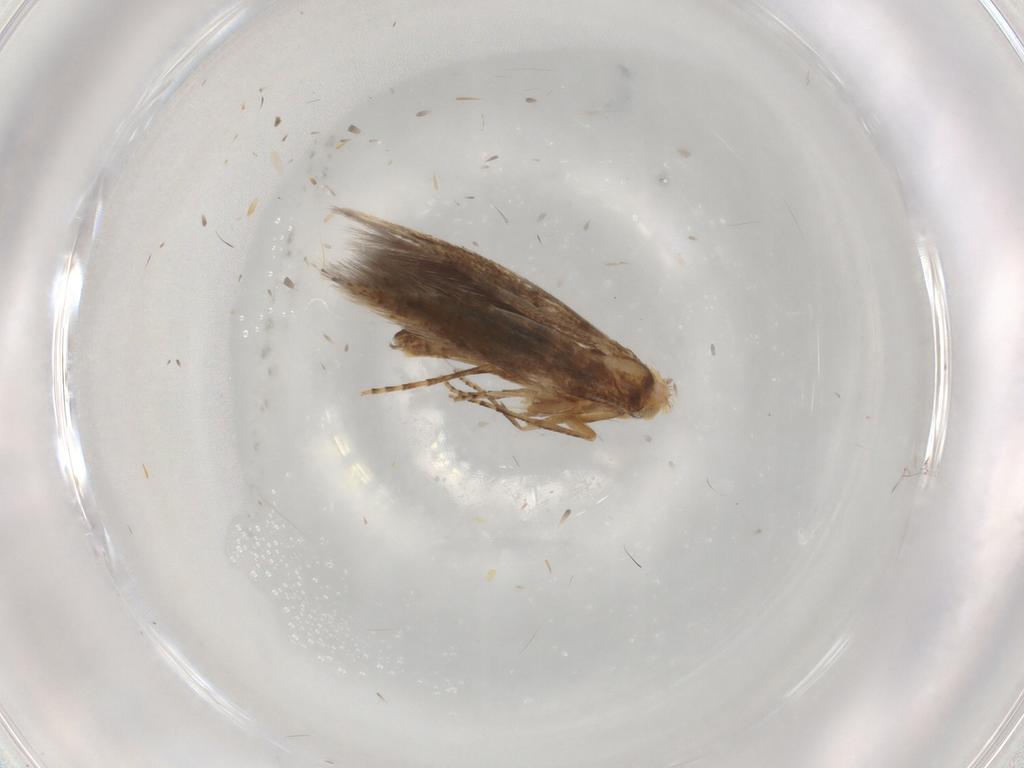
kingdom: Animalia
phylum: Arthropoda
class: Insecta
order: Lepidoptera
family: Gracillariidae
